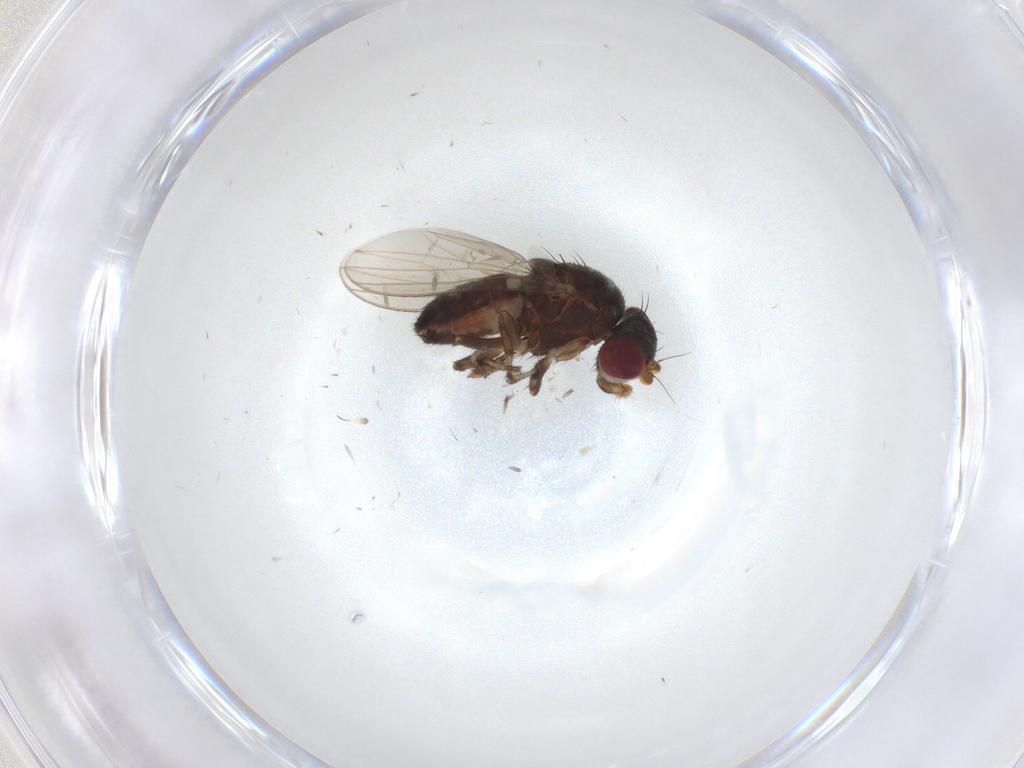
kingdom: Animalia
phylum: Arthropoda
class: Insecta
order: Diptera
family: Heleomyzidae
